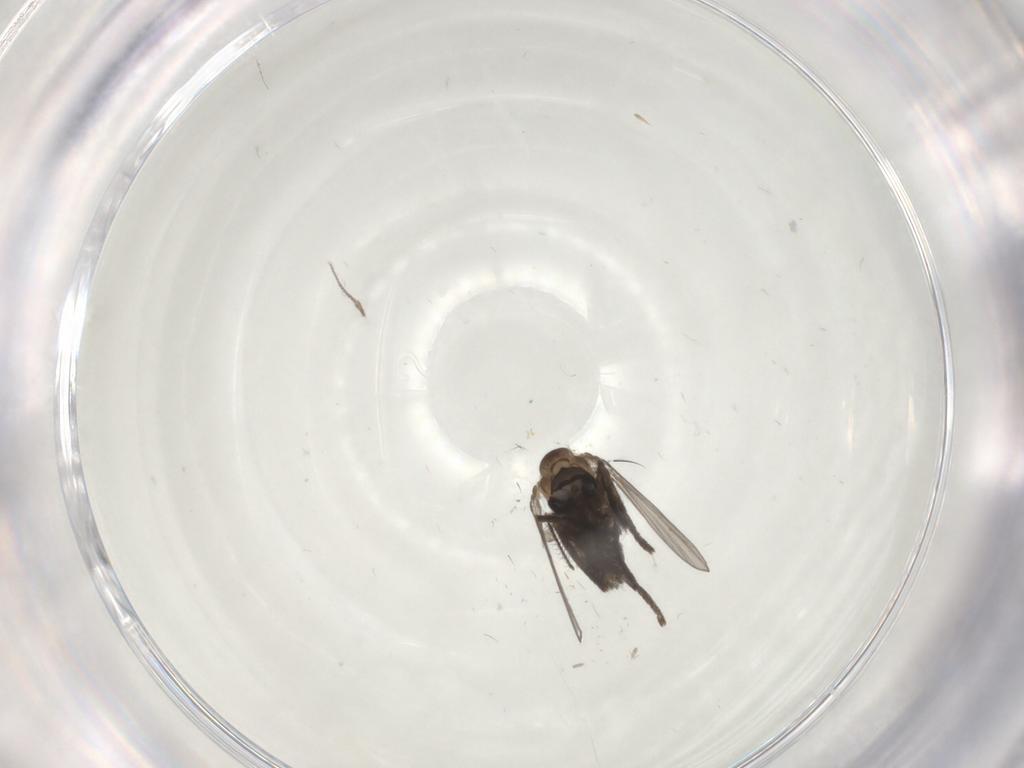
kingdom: Animalia
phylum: Arthropoda
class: Insecta
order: Diptera
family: Psychodidae
